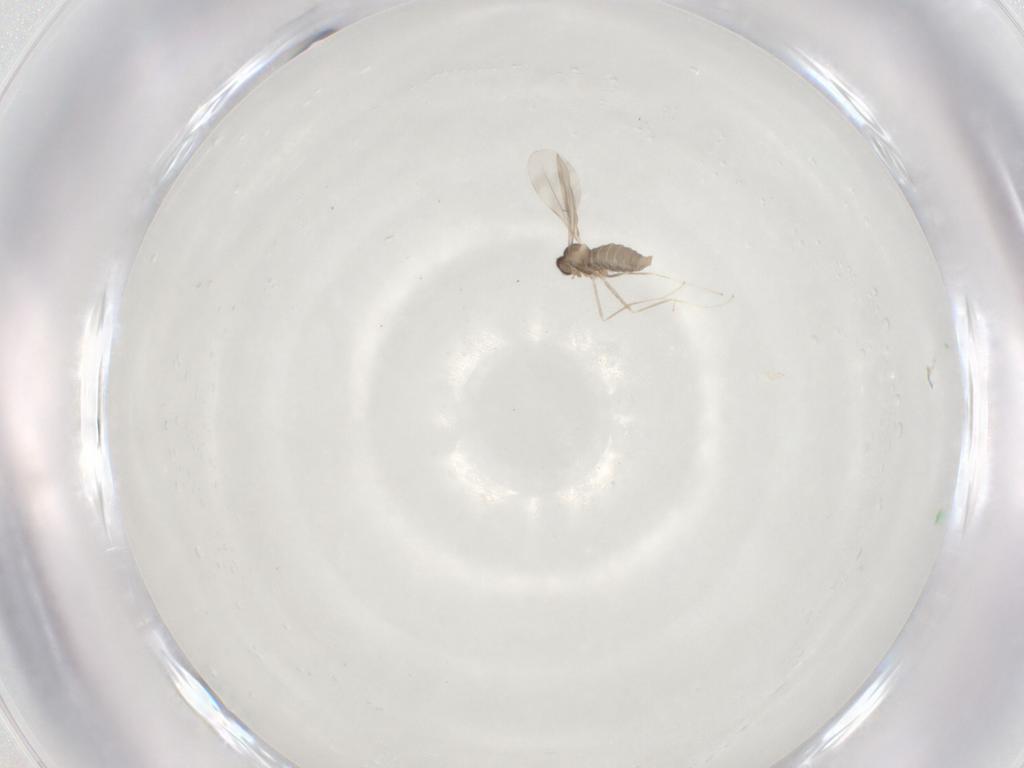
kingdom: Animalia
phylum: Arthropoda
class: Insecta
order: Diptera
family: Cecidomyiidae
